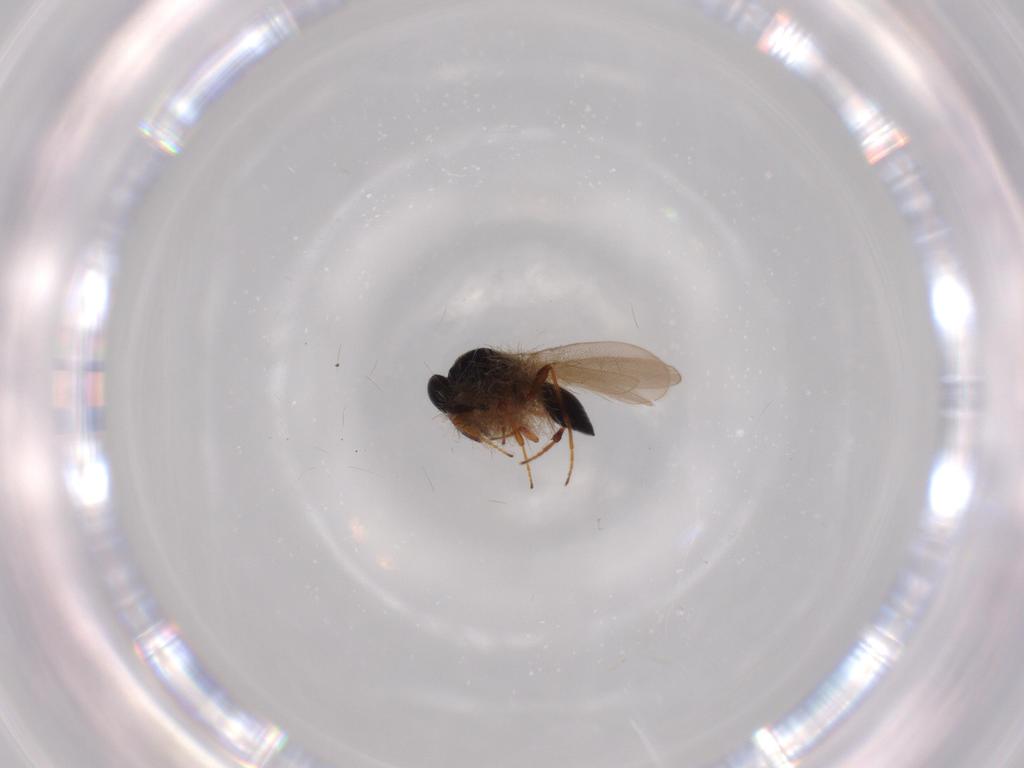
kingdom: Animalia
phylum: Arthropoda
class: Insecta
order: Hymenoptera
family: Platygastridae
